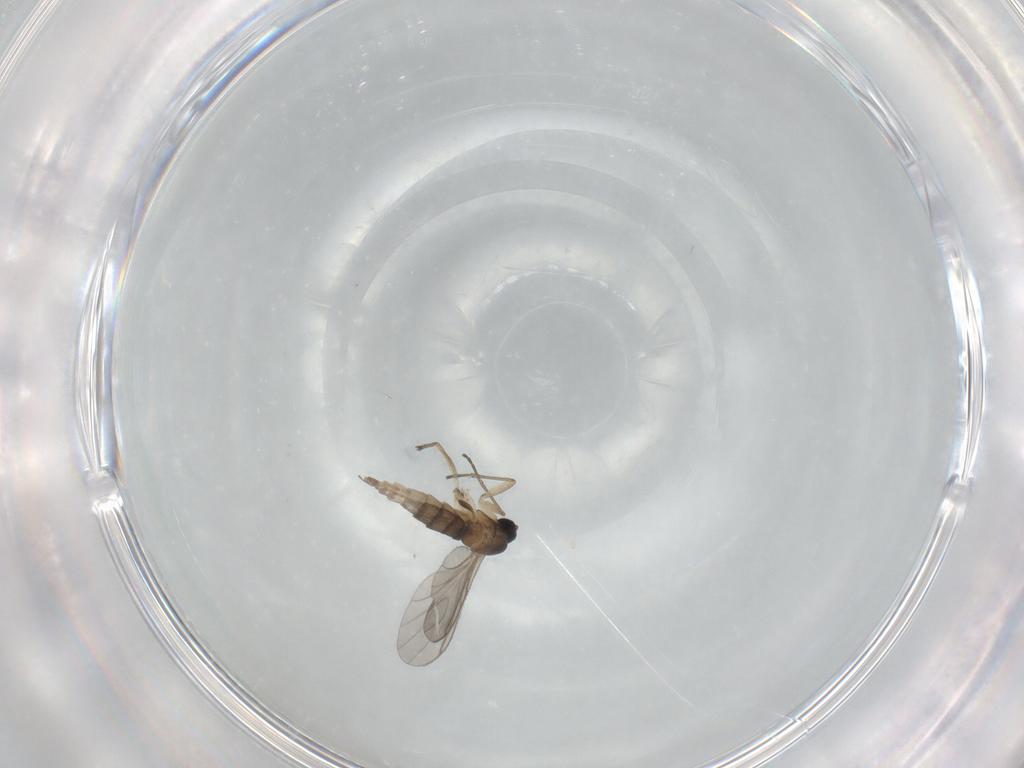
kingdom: Animalia
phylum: Arthropoda
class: Insecta
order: Diptera
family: Sciaridae
